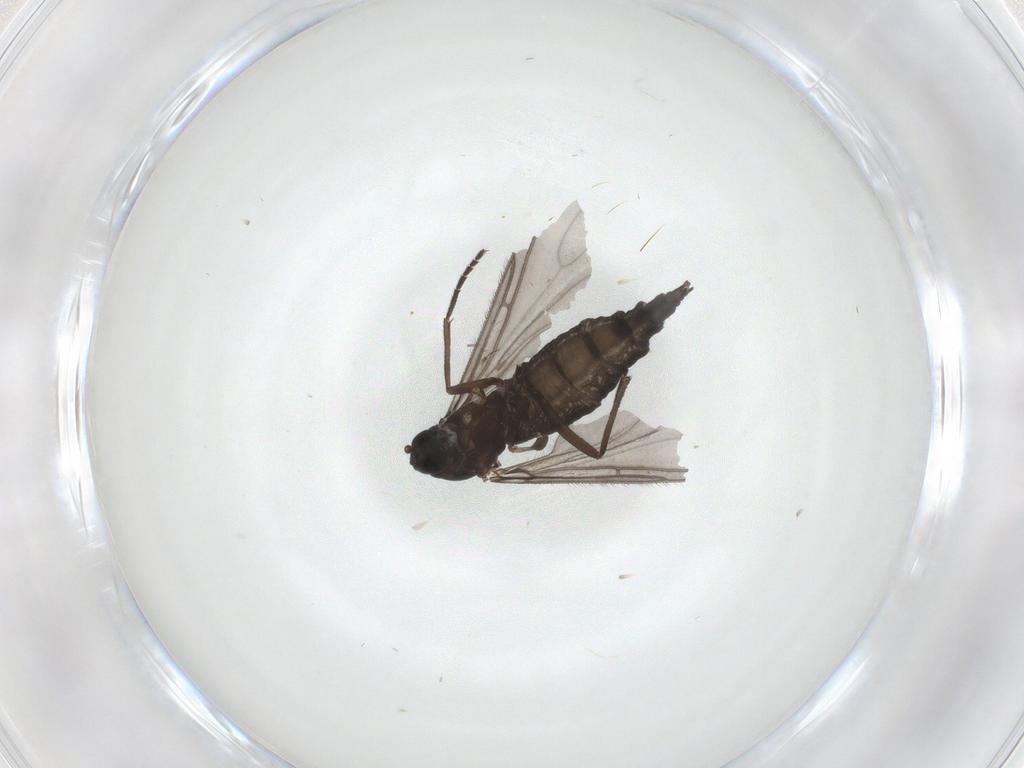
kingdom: Animalia
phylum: Arthropoda
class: Insecta
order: Diptera
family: Sciaridae
